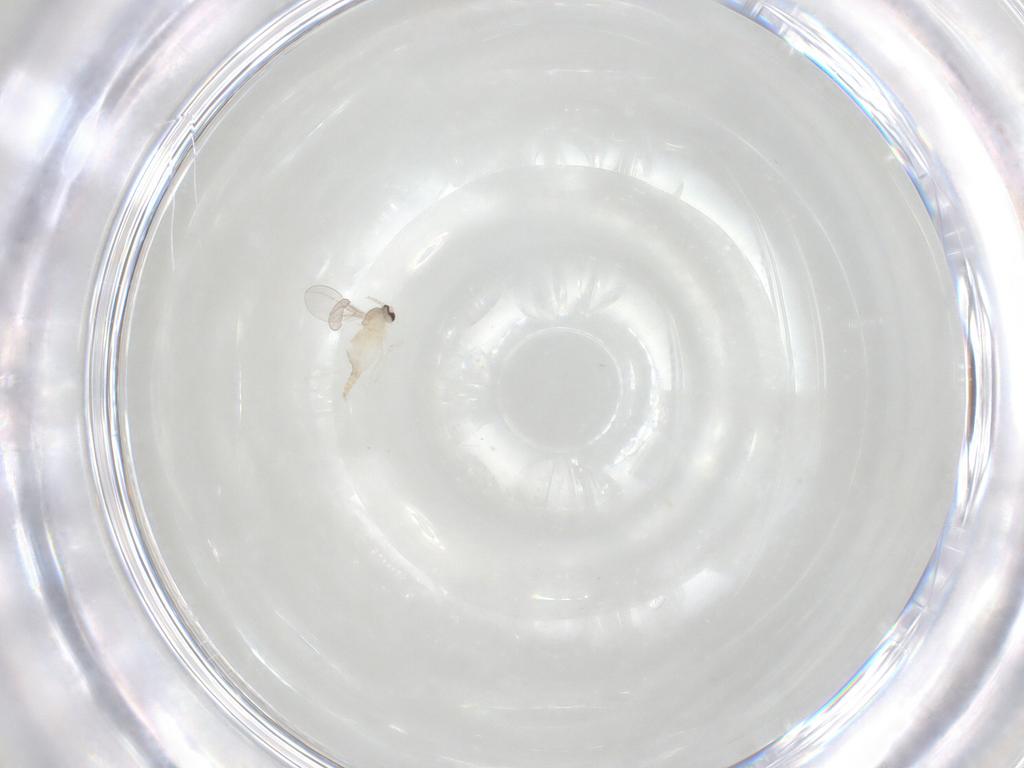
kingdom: Animalia
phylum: Arthropoda
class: Insecta
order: Diptera
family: Cecidomyiidae
